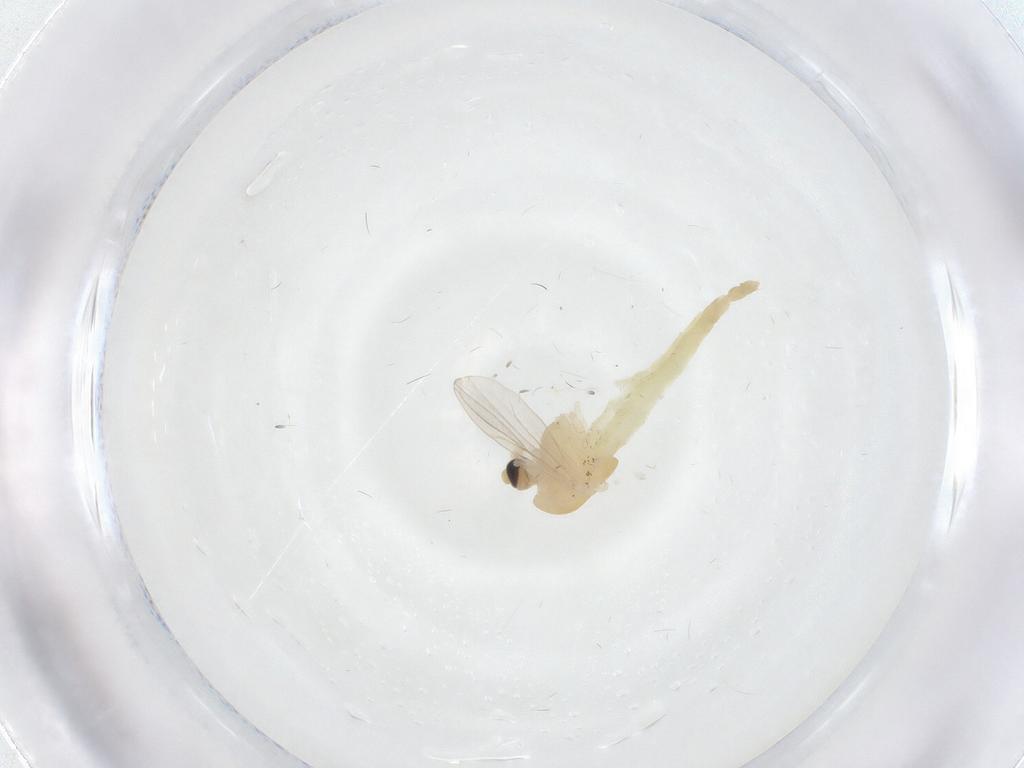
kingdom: Animalia
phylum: Arthropoda
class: Insecta
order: Diptera
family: Chironomidae
